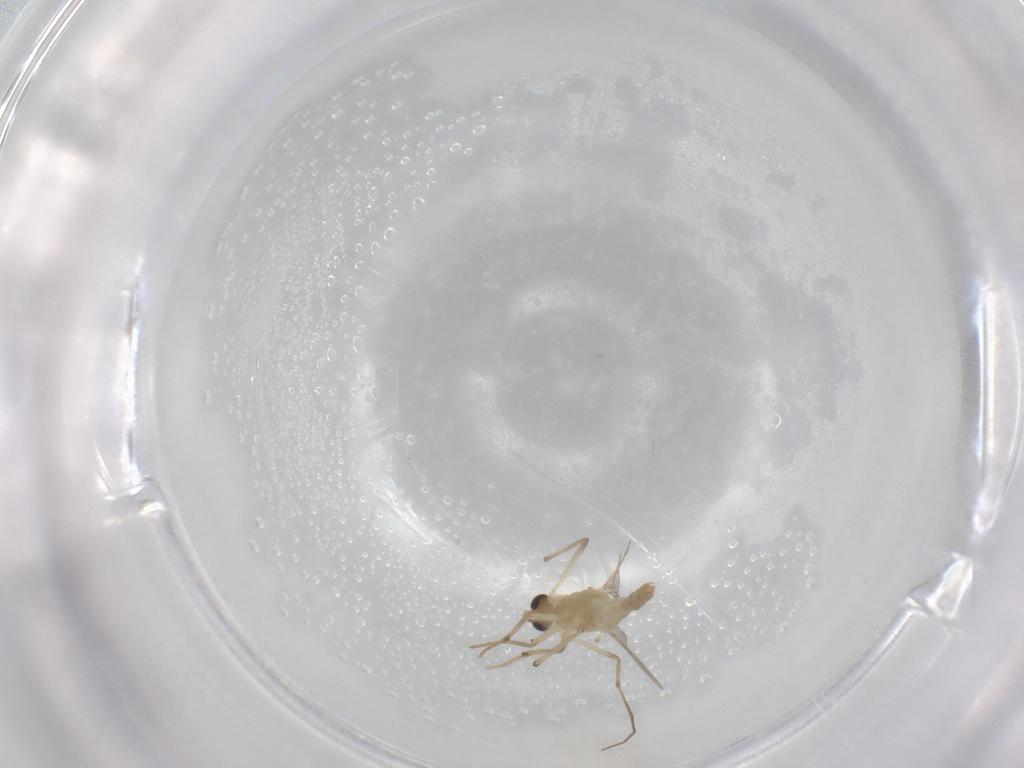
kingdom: Animalia
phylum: Arthropoda
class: Insecta
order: Diptera
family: Chironomidae
